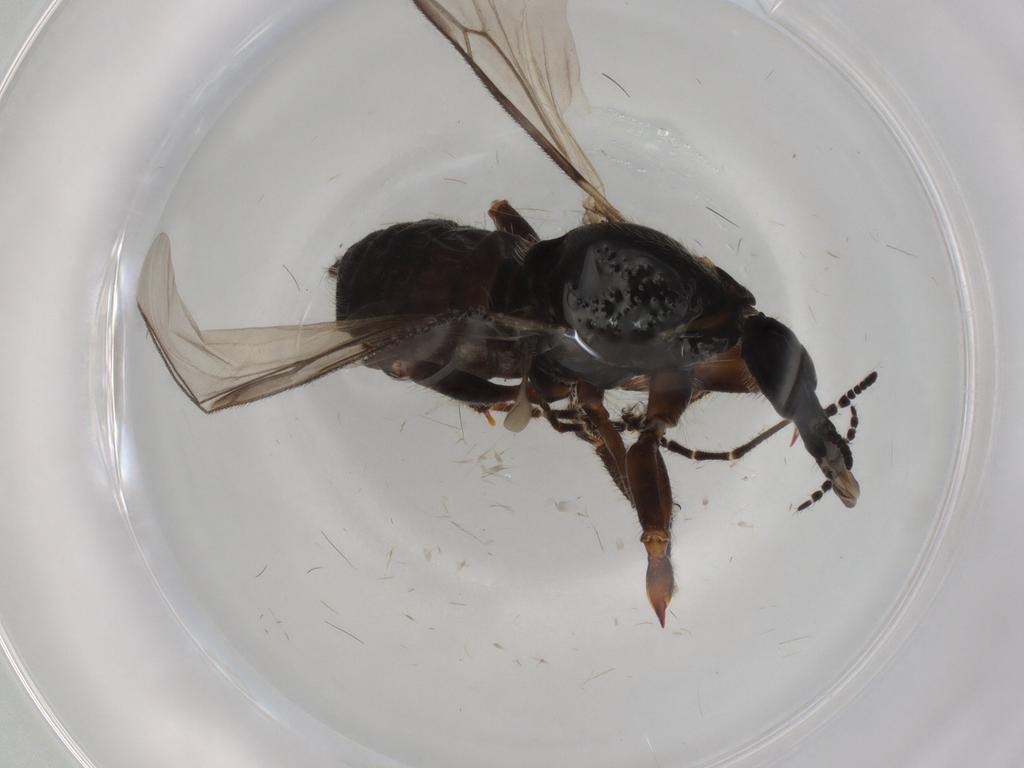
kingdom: Animalia
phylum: Arthropoda
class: Insecta
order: Diptera
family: Bibionidae
